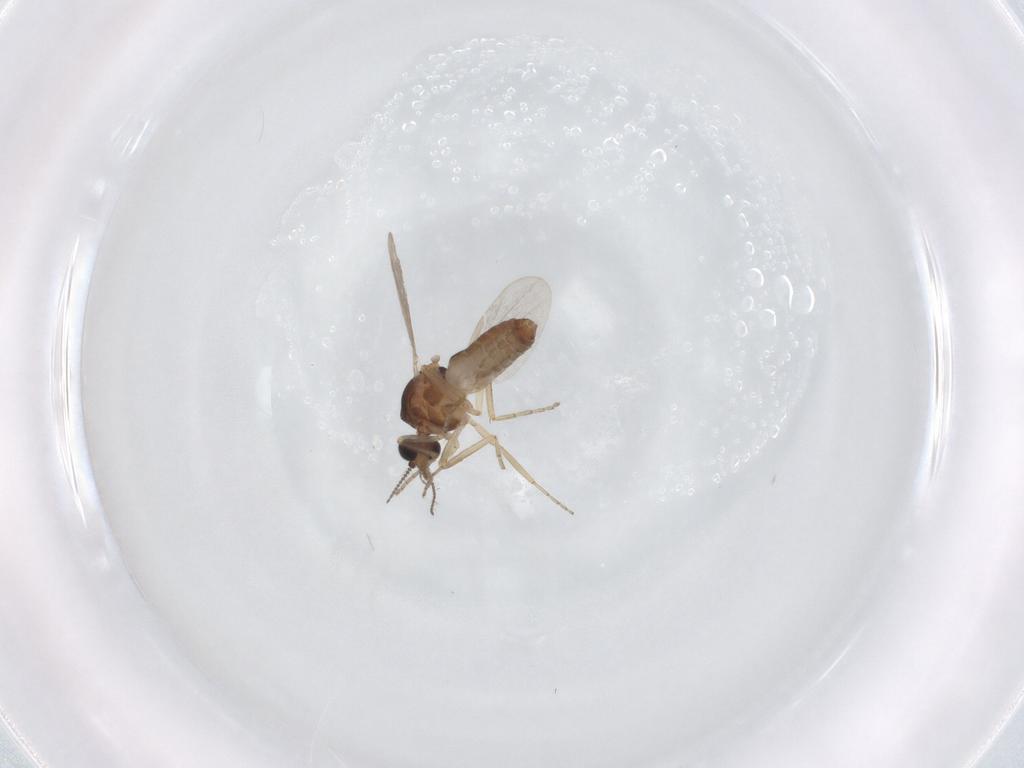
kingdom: Animalia
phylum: Arthropoda
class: Insecta
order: Diptera
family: Ceratopogonidae
